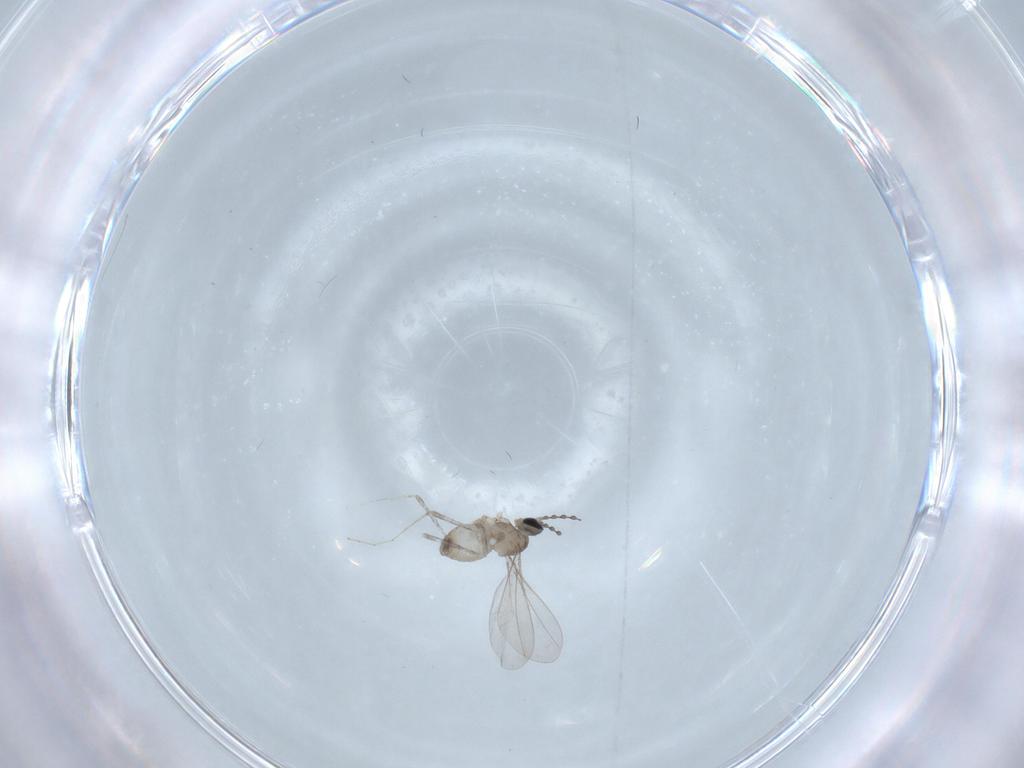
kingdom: Animalia
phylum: Arthropoda
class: Insecta
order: Diptera
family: Cecidomyiidae
